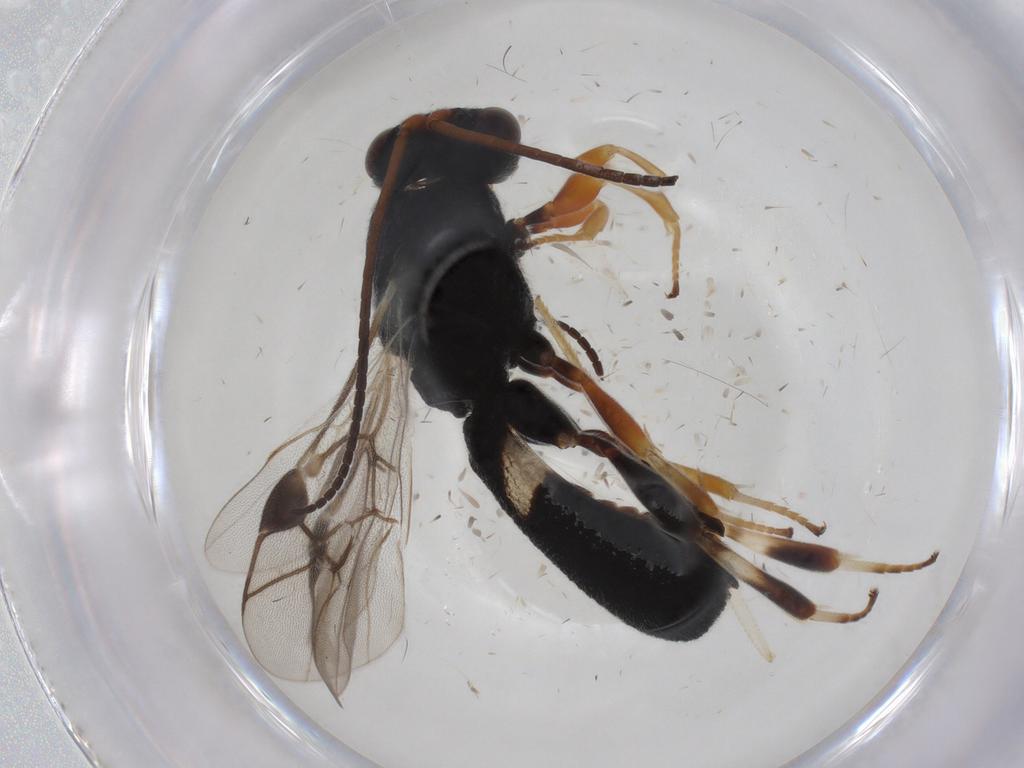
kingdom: Animalia
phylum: Arthropoda
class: Insecta
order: Hymenoptera
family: Braconidae
